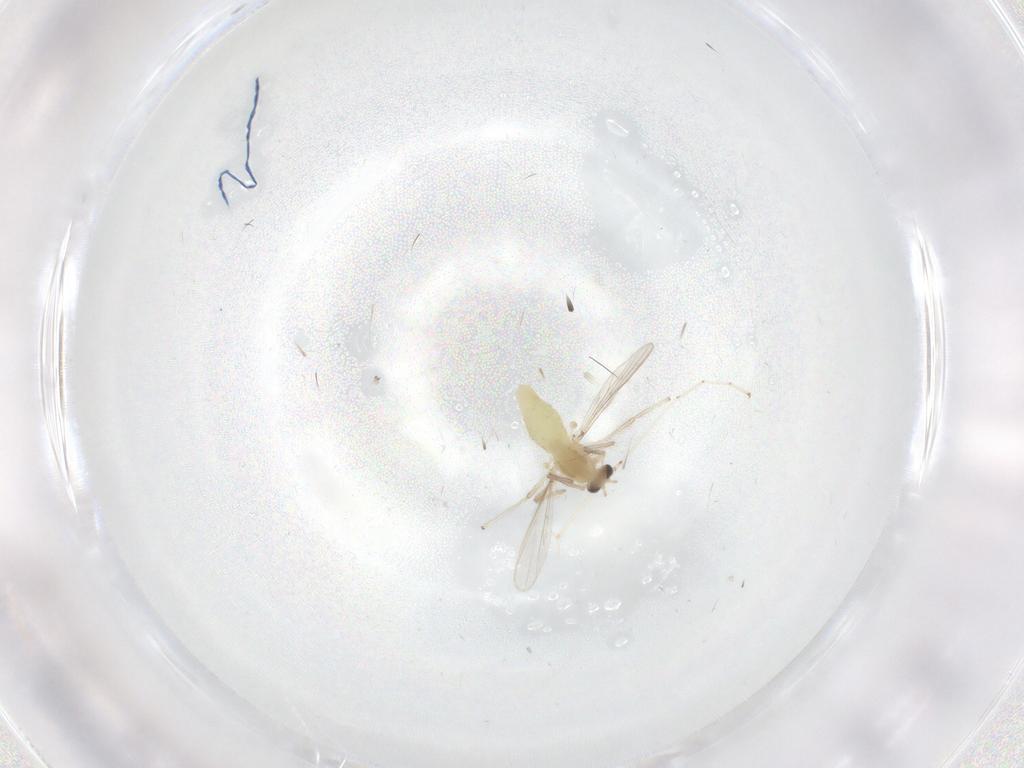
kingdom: Animalia
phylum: Arthropoda
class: Insecta
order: Diptera
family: Chironomidae
